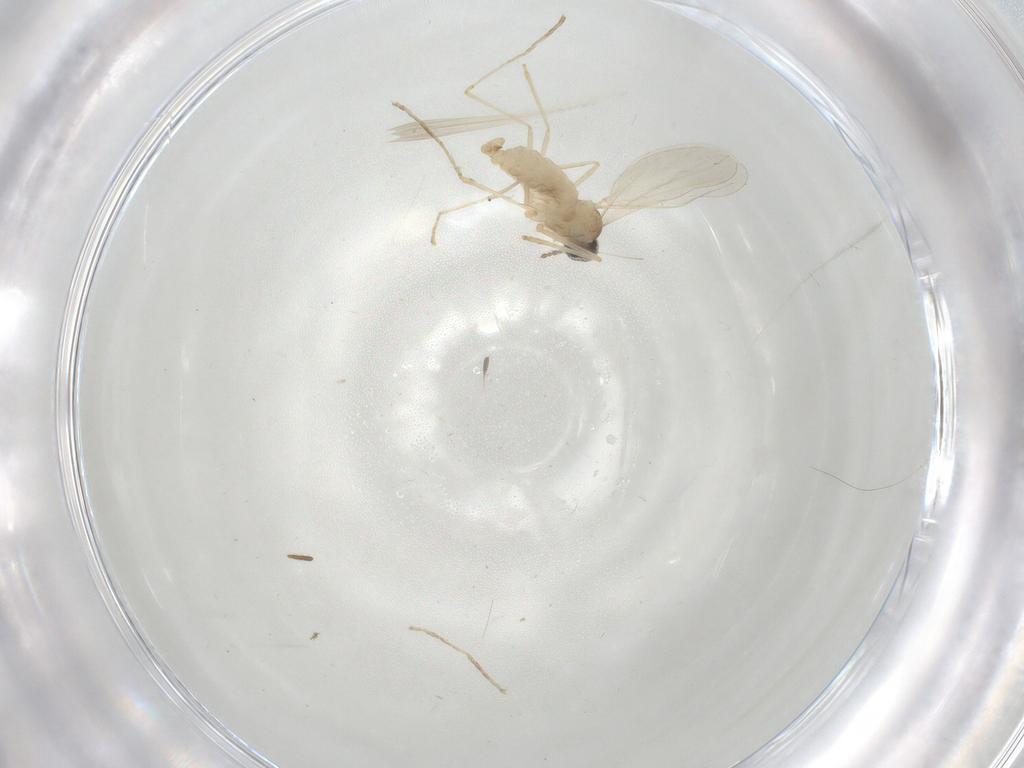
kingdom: Animalia
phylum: Arthropoda
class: Insecta
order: Diptera
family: Cecidomyiidae
